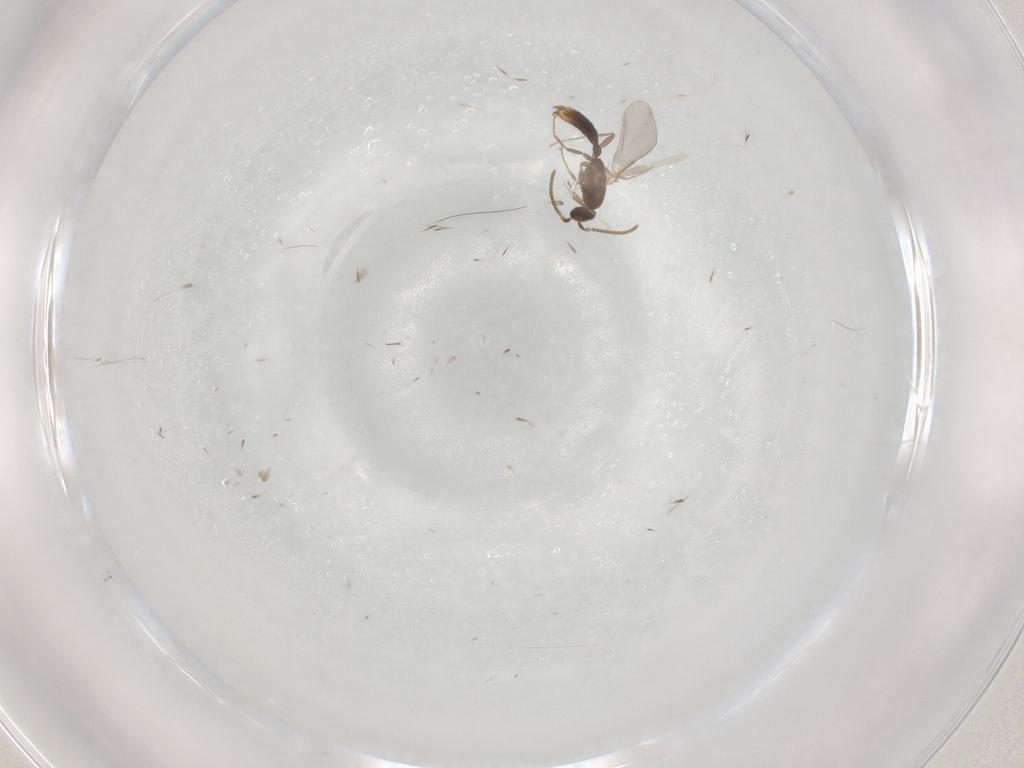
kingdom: Animalia
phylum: Arthropoda
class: Insecta
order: Hymenoptera
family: Formicidae
